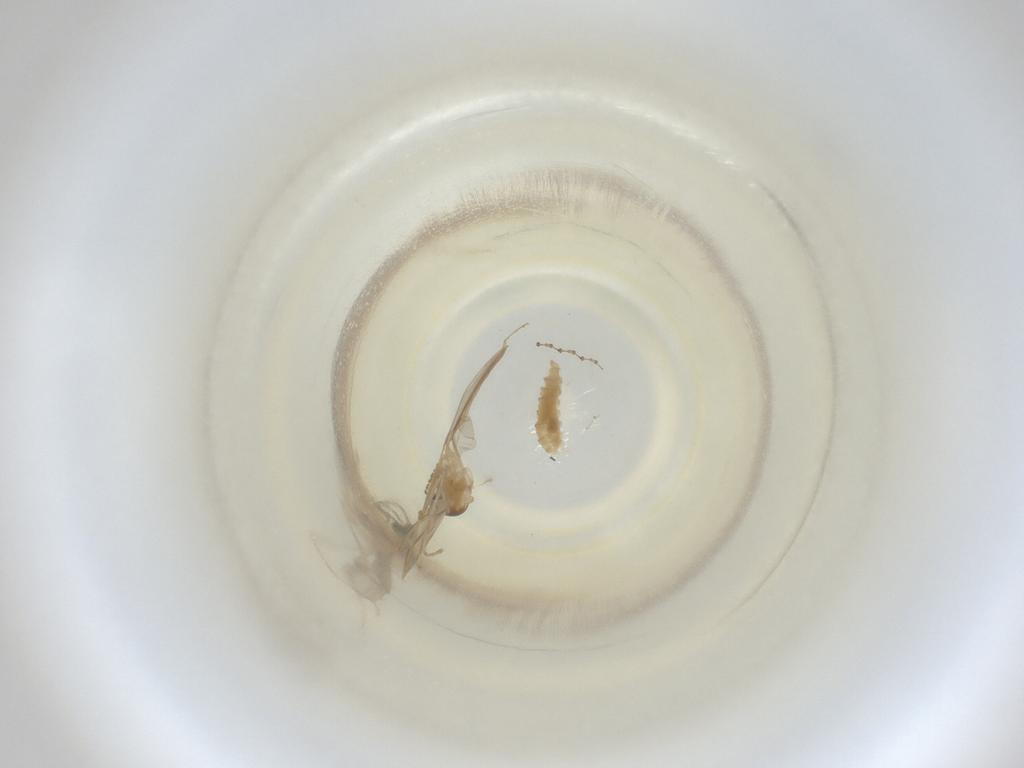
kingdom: Animalia
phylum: Arthropoda
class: Insecta
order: Diptera
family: Cecidomyiidae
